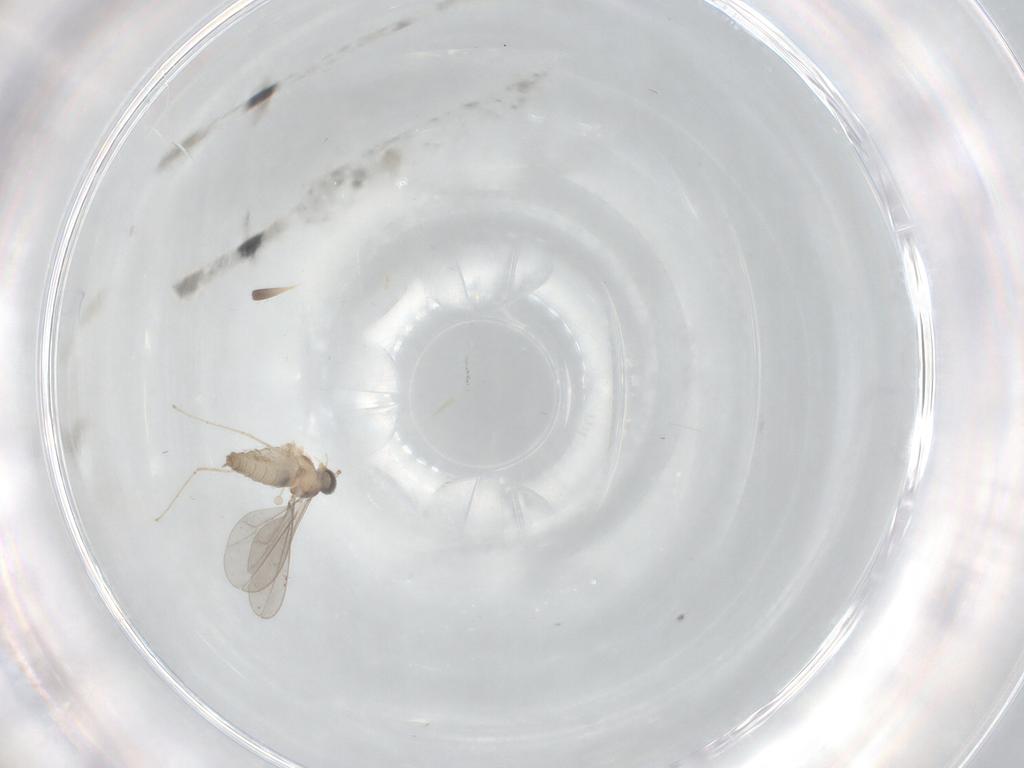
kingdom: Animalia
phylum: Arthropoda
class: Insecta
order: Diptera
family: Cecidomyiidae
